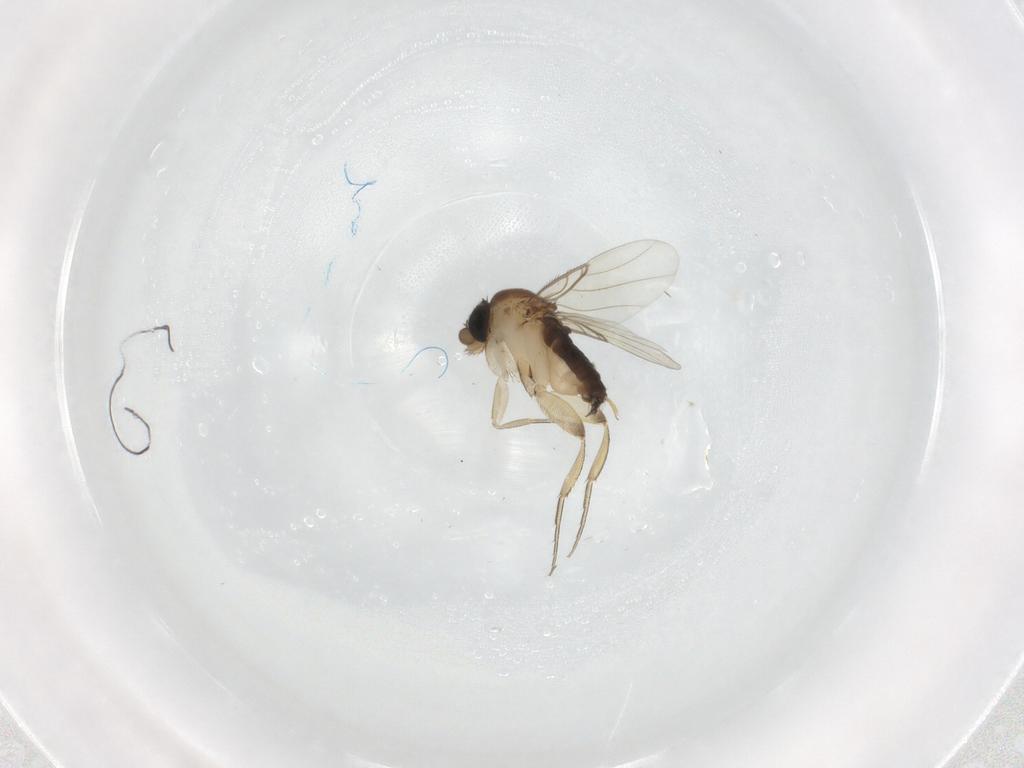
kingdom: Animalia
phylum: Arthropoda
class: Insecta
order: Diptera
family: Phoridae
